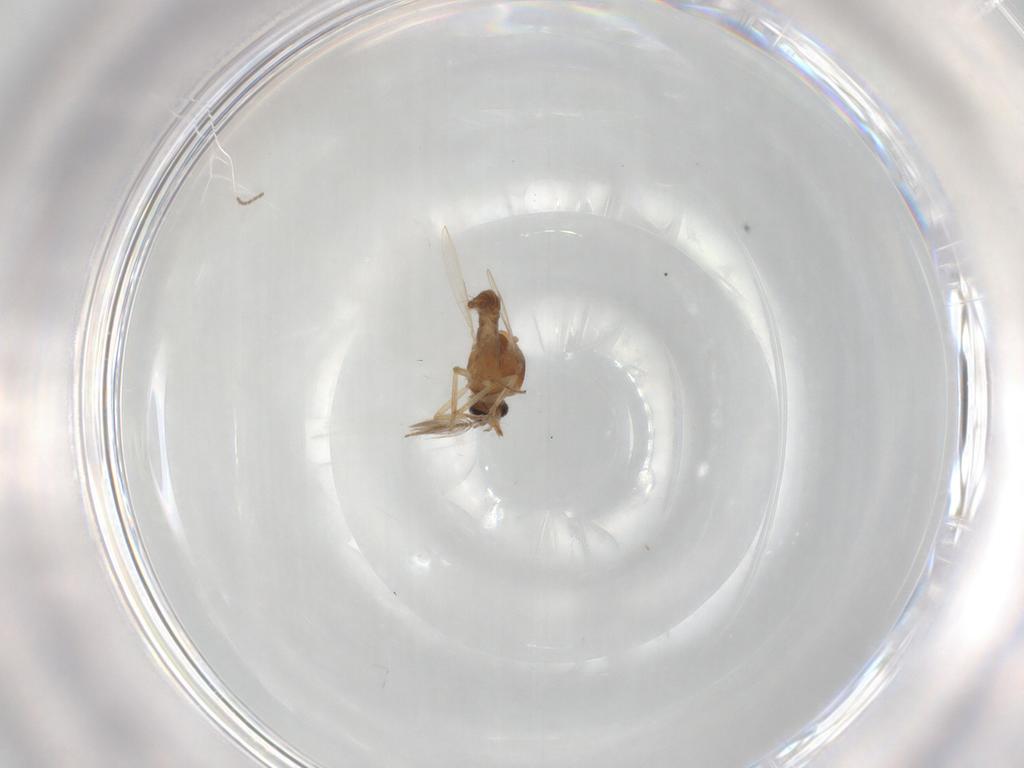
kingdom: Animalia
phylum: Arthropoda
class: Insecta
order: Diptera
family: Ceratopogonidae
